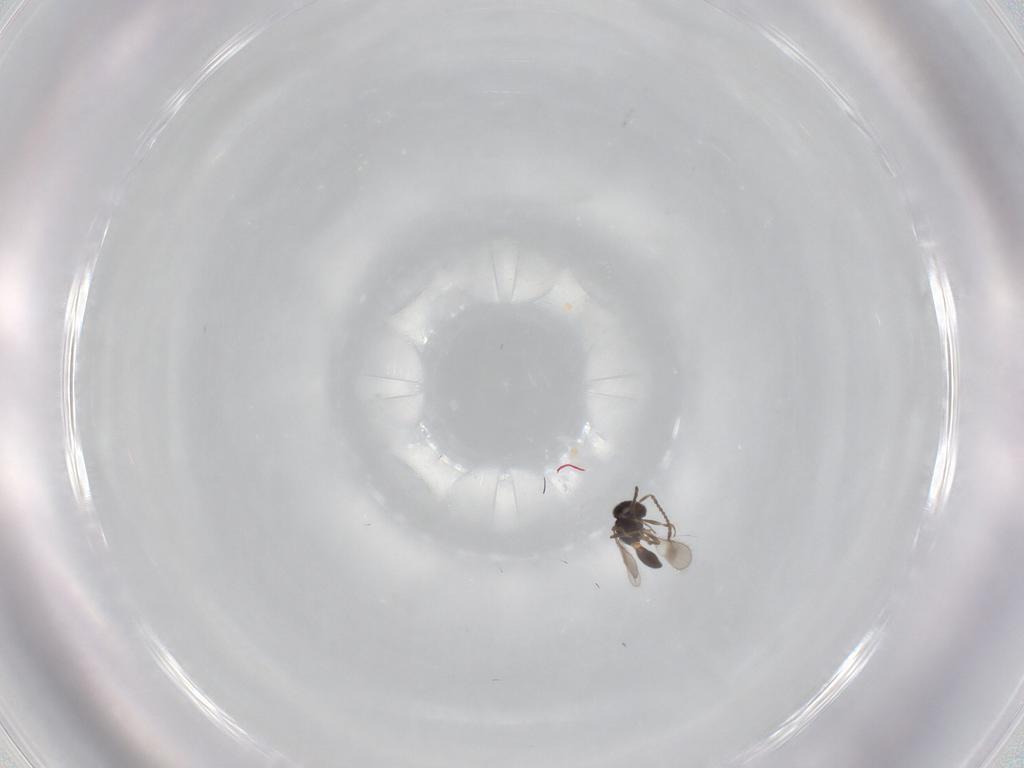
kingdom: Animalia
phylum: Arthropoda
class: Insecta
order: Hymenoptera
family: Scelionidae
